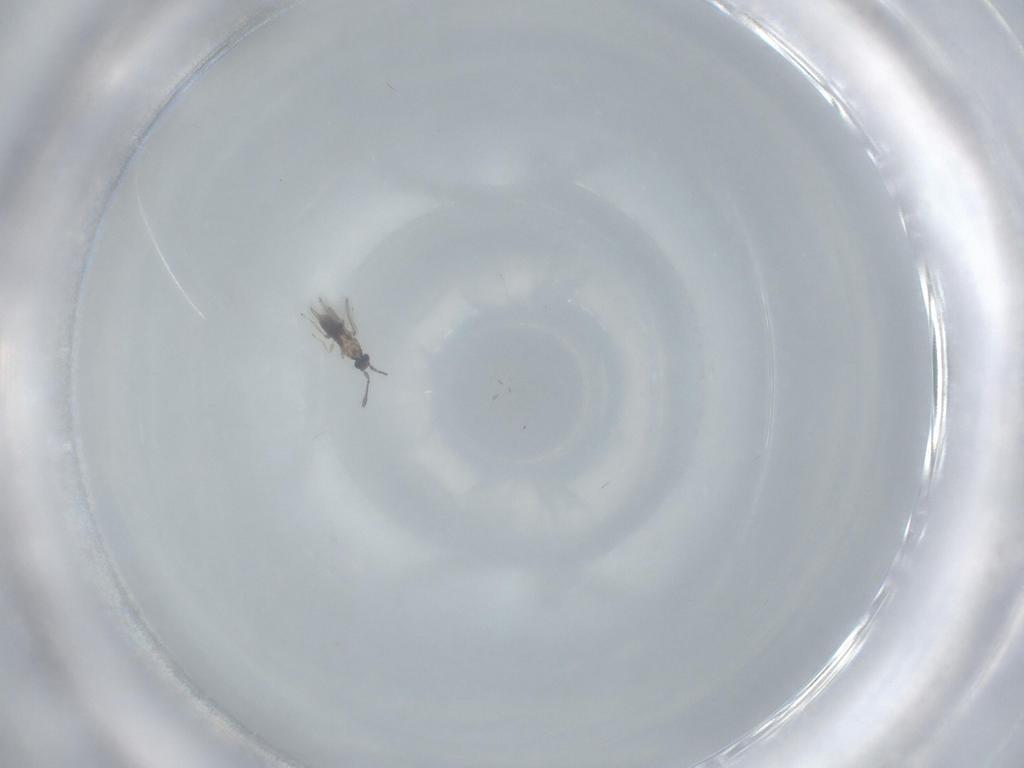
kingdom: Animalia
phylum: Arthropoda
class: Insecta
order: Hymenoptera
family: Mymaridae
